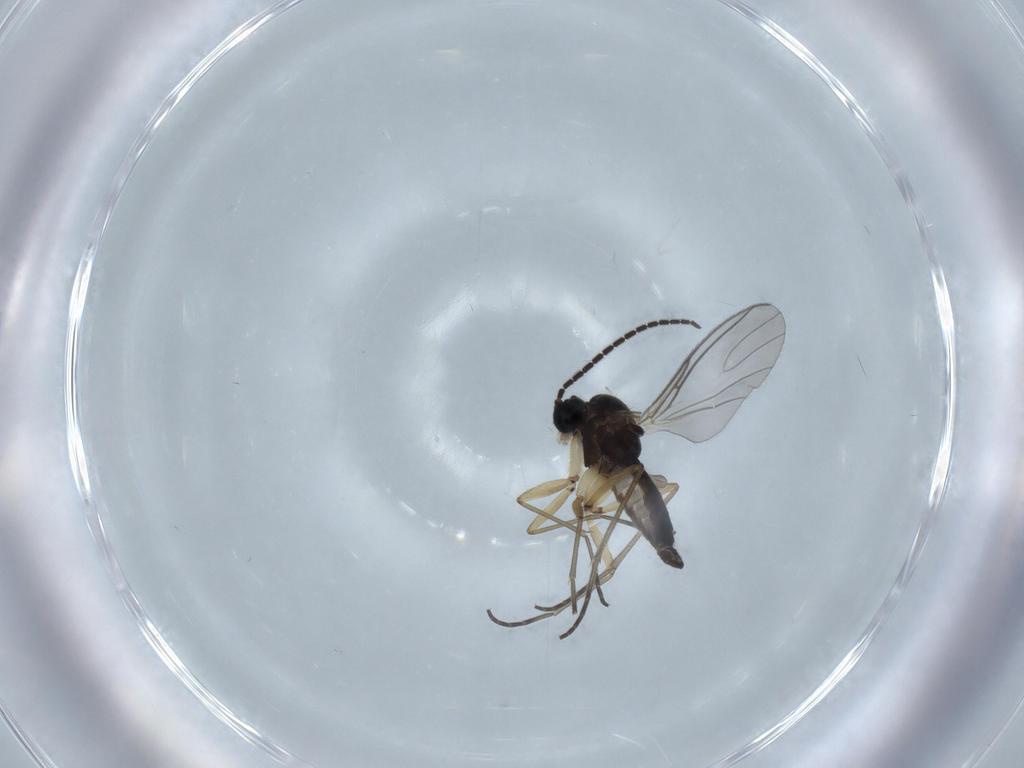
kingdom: Animalia
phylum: Arthropoda
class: Insecta
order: Diptera
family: Sciaridae
